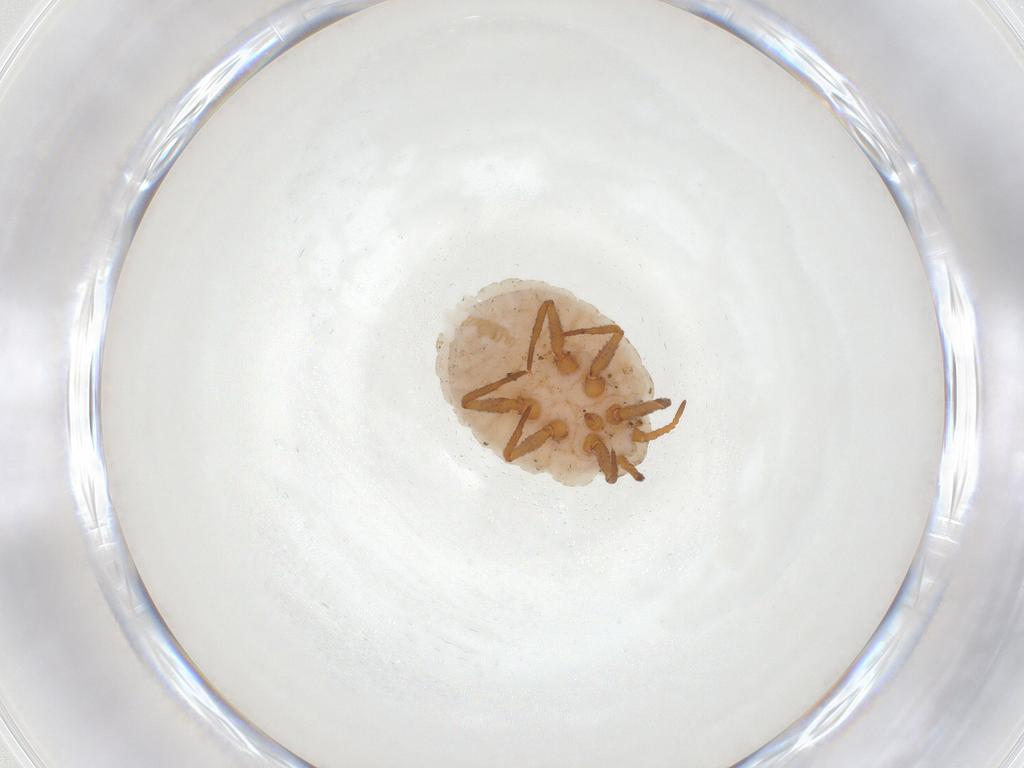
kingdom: Animalia
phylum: Arthropoda
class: Insecta
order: Hemiptera
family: Ortheziidae
